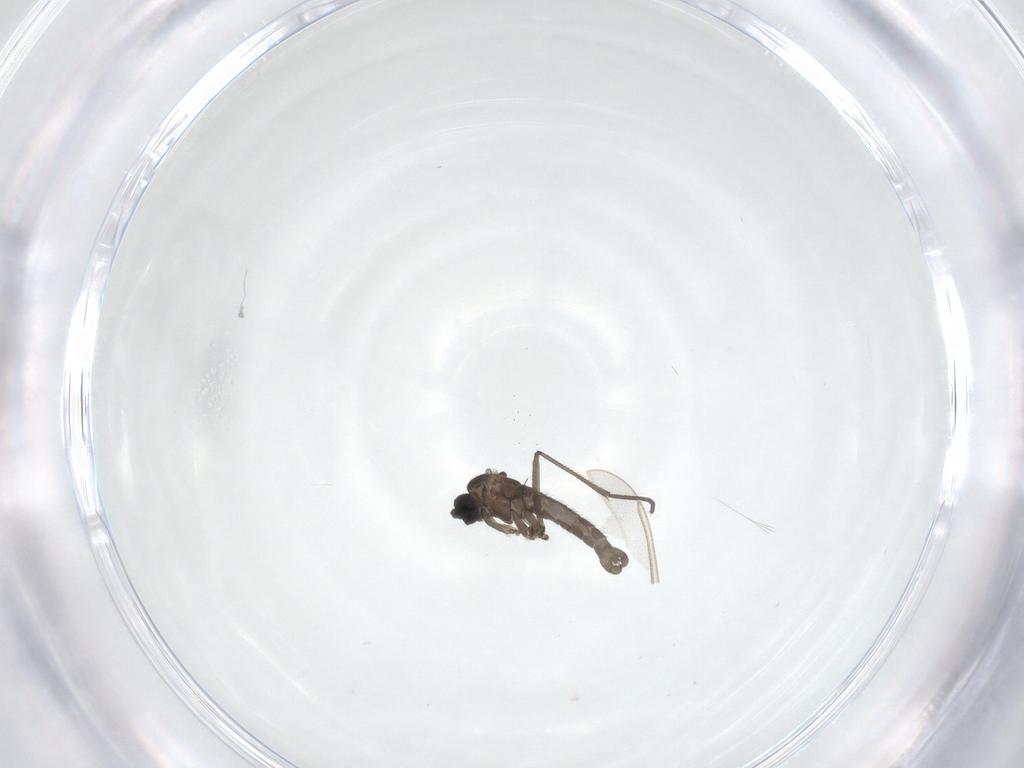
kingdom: Animalia
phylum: Arthropoda
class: Insecta
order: Diptera
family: Sciaridae
